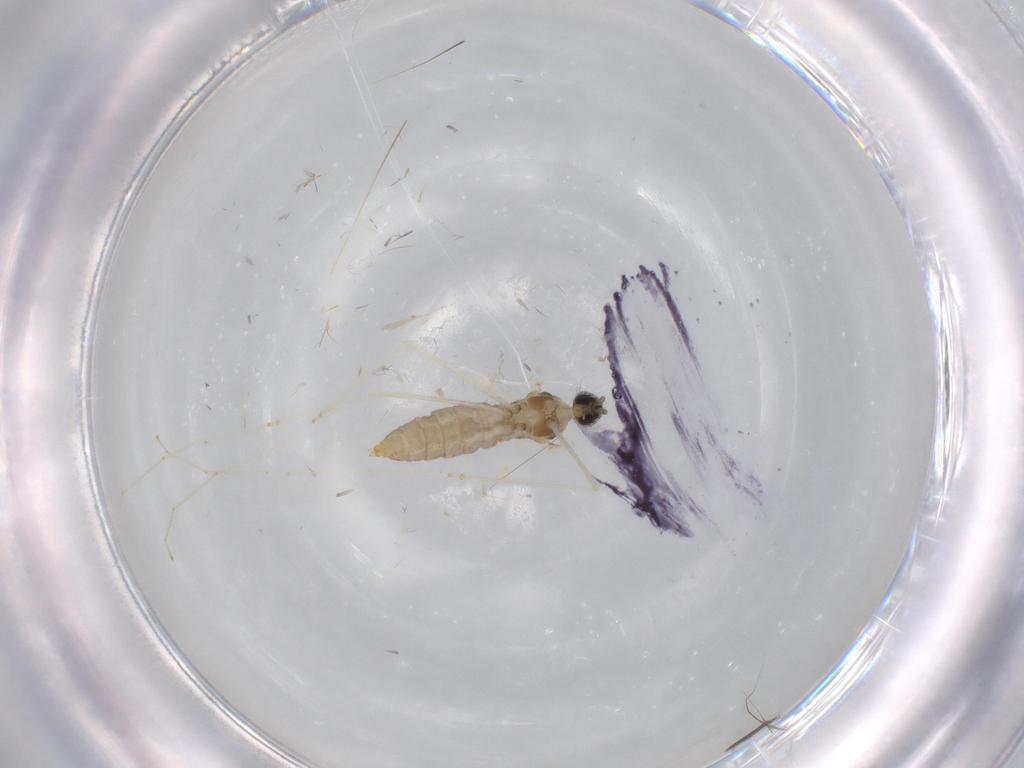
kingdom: Animalia
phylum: Arthropoda
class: Insecta
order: Diptera
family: Cecidomyiidae
